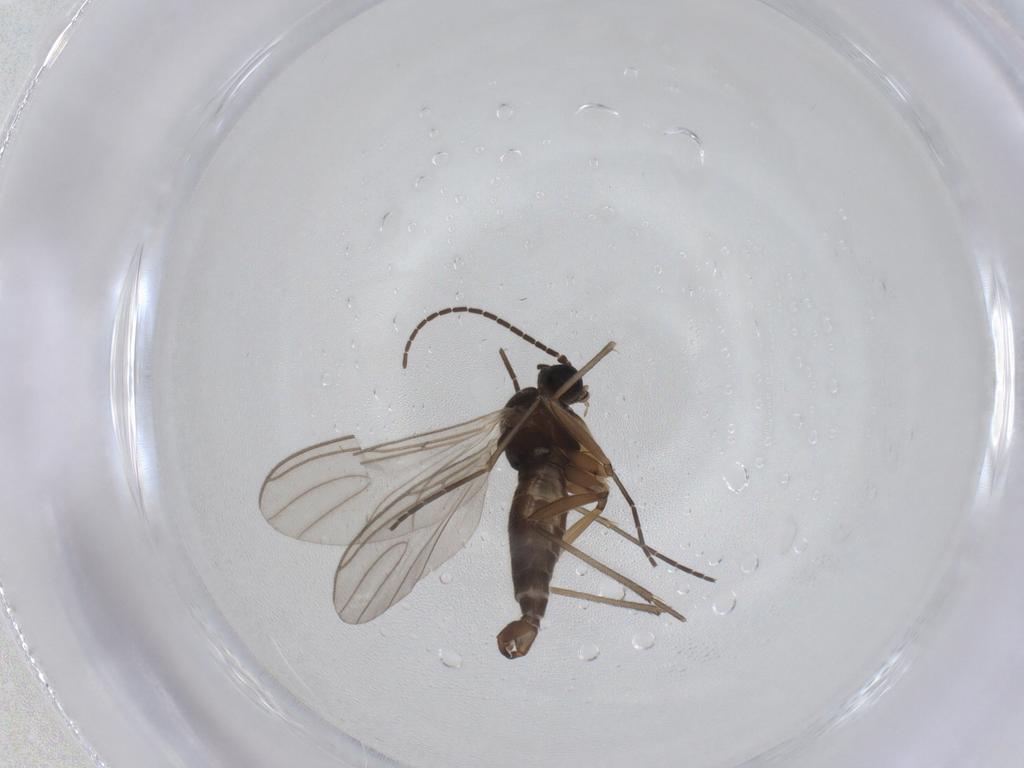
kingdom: Animalia
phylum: Arthropoda
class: Insecta
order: Diptera
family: Sciaridae
